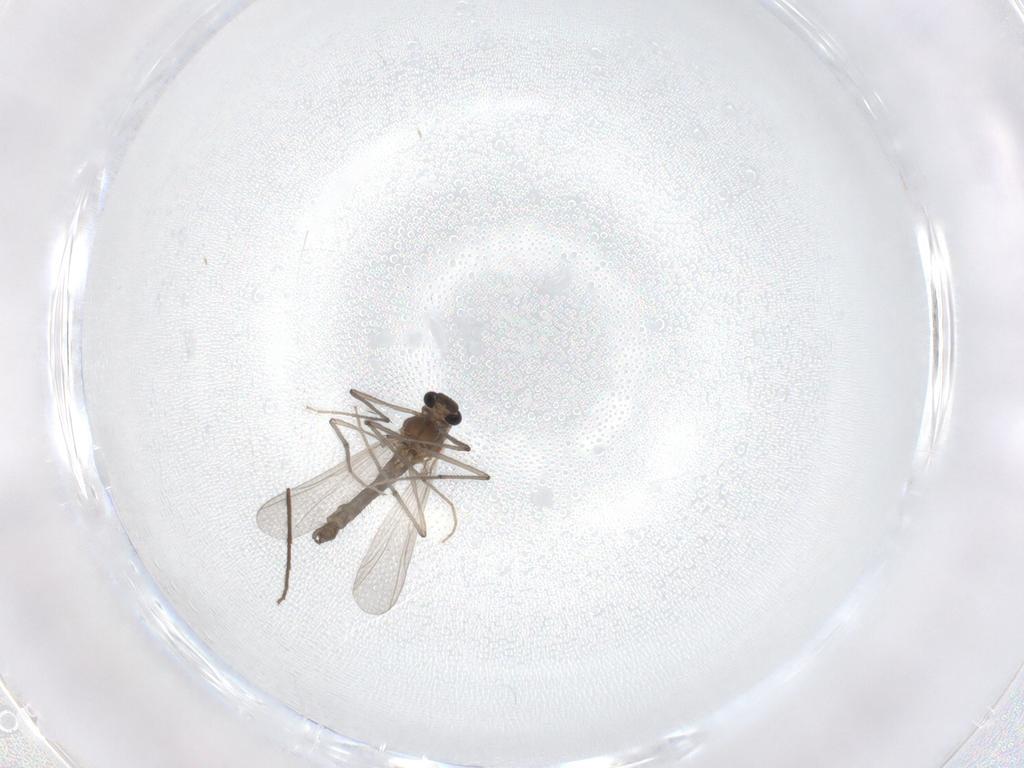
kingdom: Animalia
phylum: Arthropoda
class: Insecta
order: Diptera
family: Chironomidae
